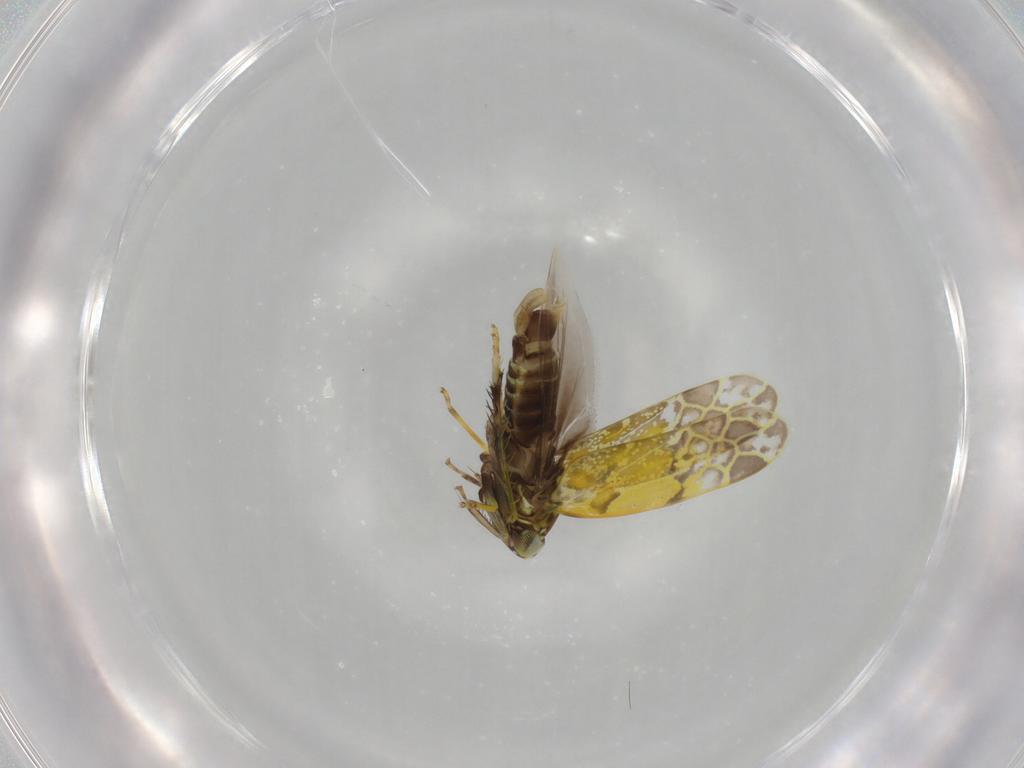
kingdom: Animalia
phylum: Arthropoda
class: Insecta
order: Hemiptera
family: Cicadellidae
